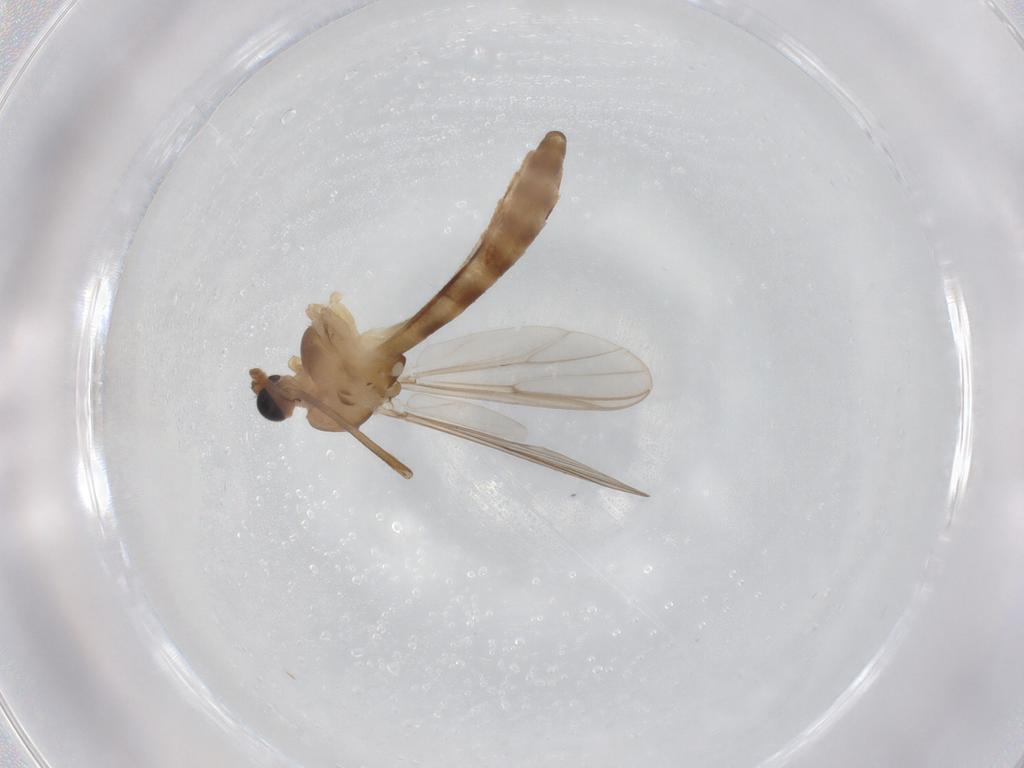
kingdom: Animalia
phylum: Arthropoda
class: Insecta
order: Diptera
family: Chironomidae
